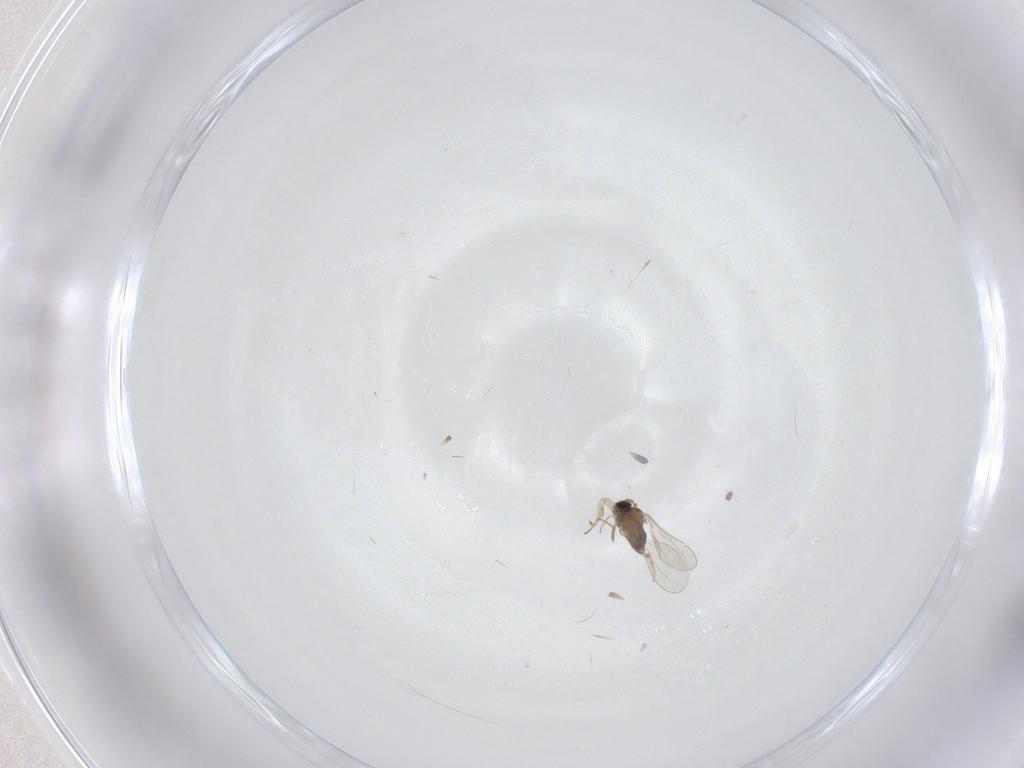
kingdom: Animalia
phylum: Arthropoda
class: Insecta
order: Diptera
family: Cecidomyiidae
